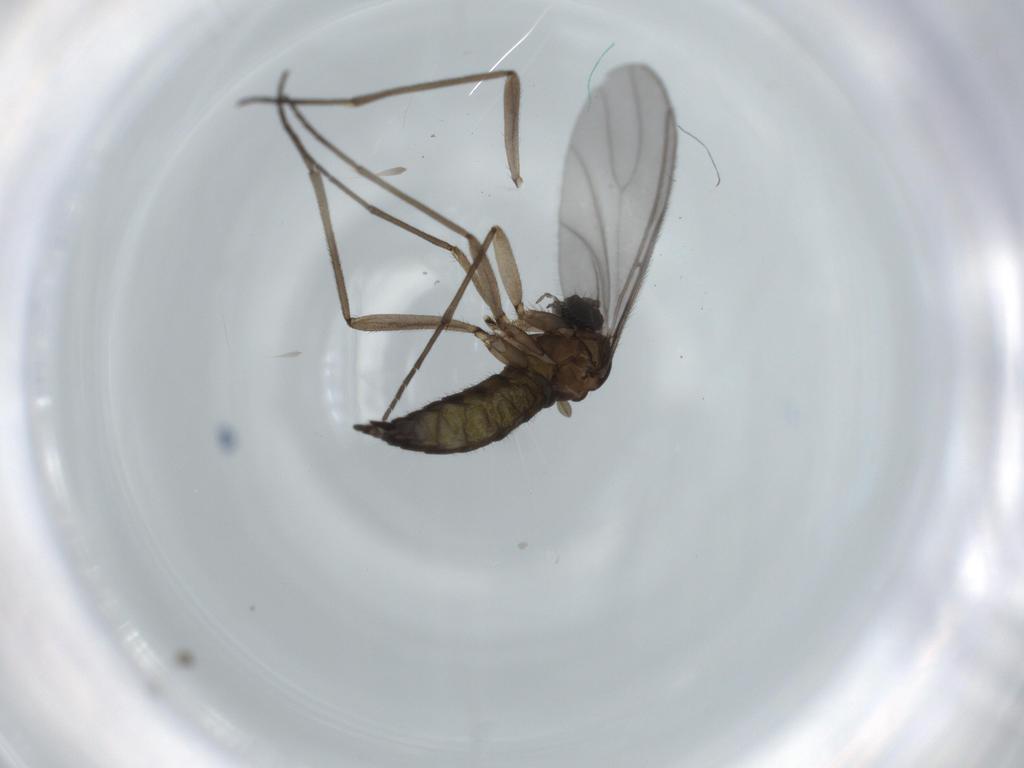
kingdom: Animalia
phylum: Arthropoda
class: Insecta
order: Diptera
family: Sciaridae
